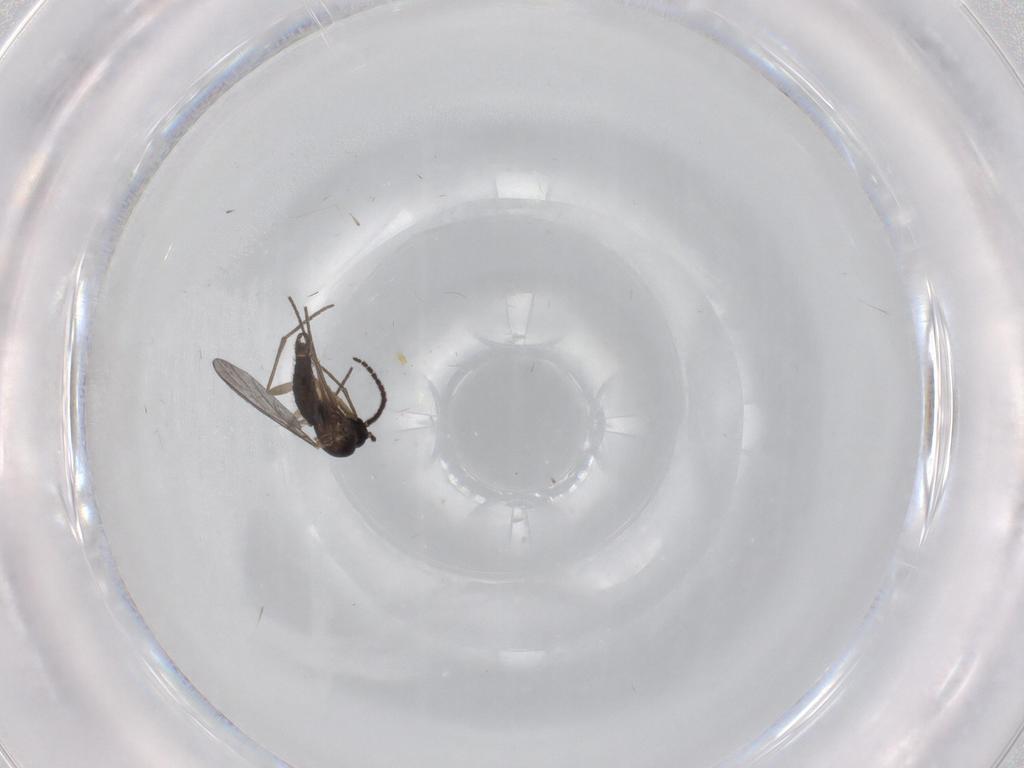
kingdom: Animalia
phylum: Arthropoda
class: Insecta
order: Diptera
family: Sciaridae
